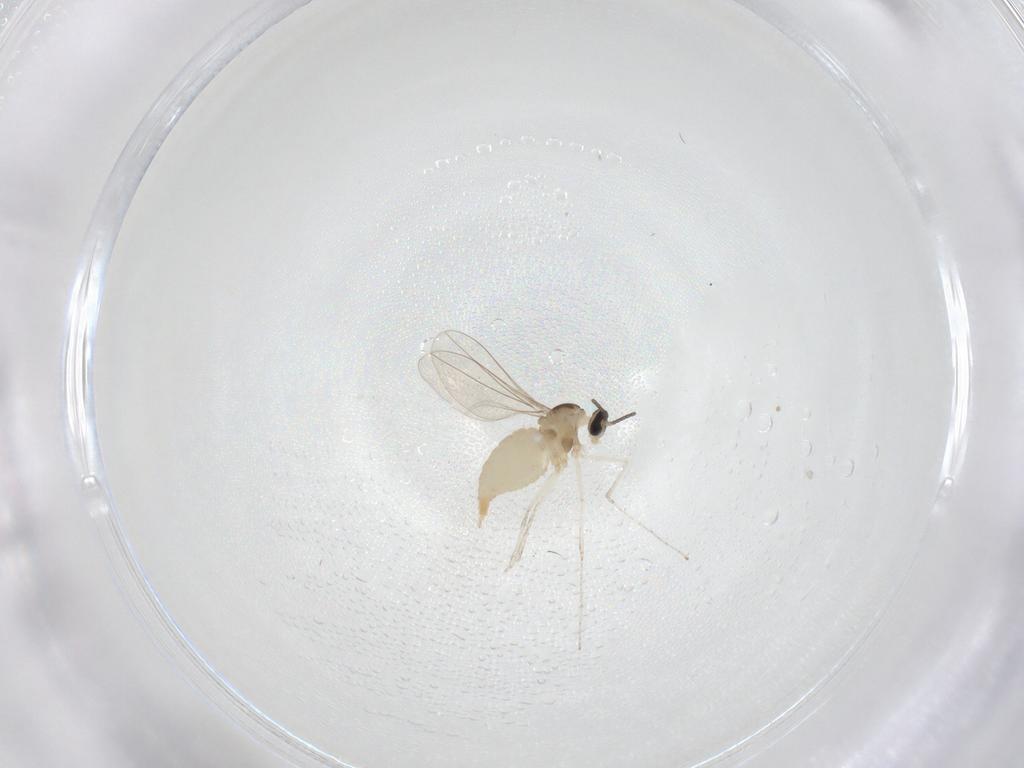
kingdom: Animalia
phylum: Arthropoda
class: Insecta
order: Diptera
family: Cecidomyiidae
